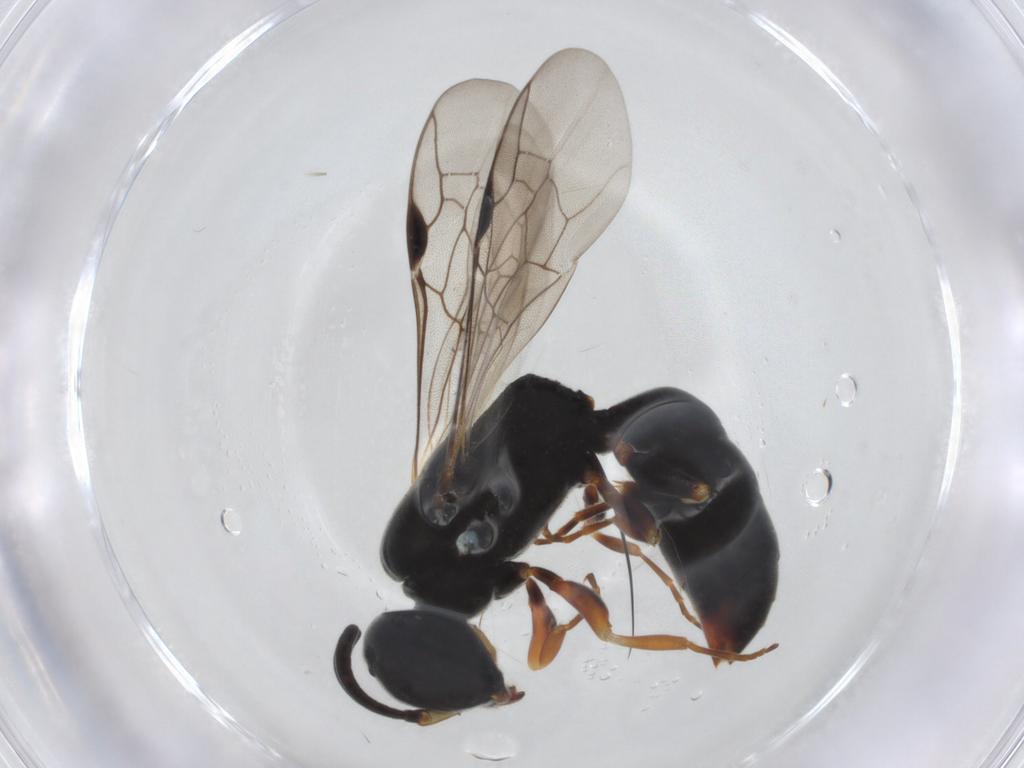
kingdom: Animalia
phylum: Arthropoda
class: Insecta
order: Hymenoptera
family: Pemphredonidae
